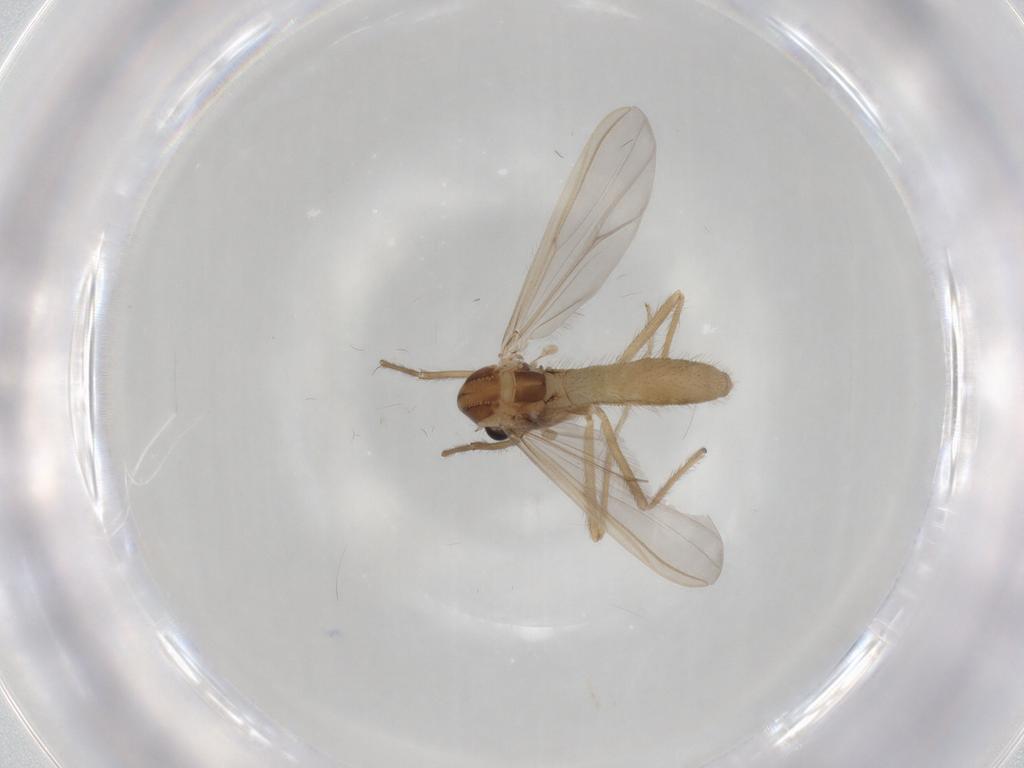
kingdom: Animalia
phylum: Arthropoda
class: Insecta
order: Diptera
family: Chironomidae
